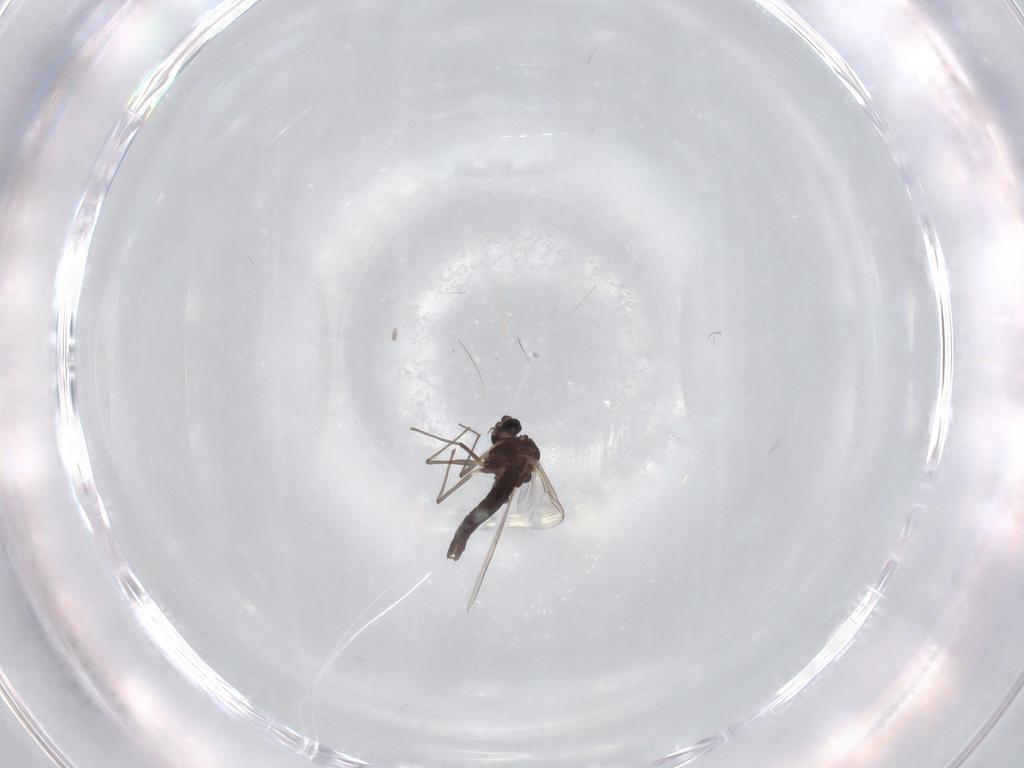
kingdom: Animalia
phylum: Arthropoda
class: Insecta
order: Diptera
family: Chironomidae
